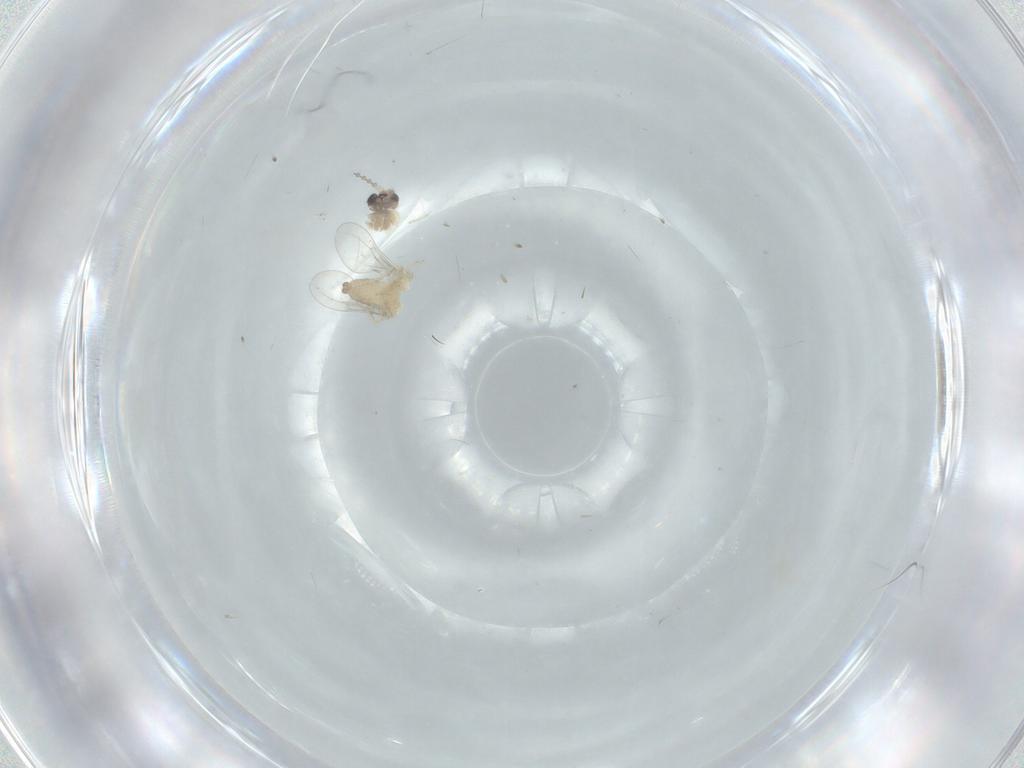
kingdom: Animalia
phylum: Arthropoda
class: Insecta
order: Diptera
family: Cecidomyiidae
